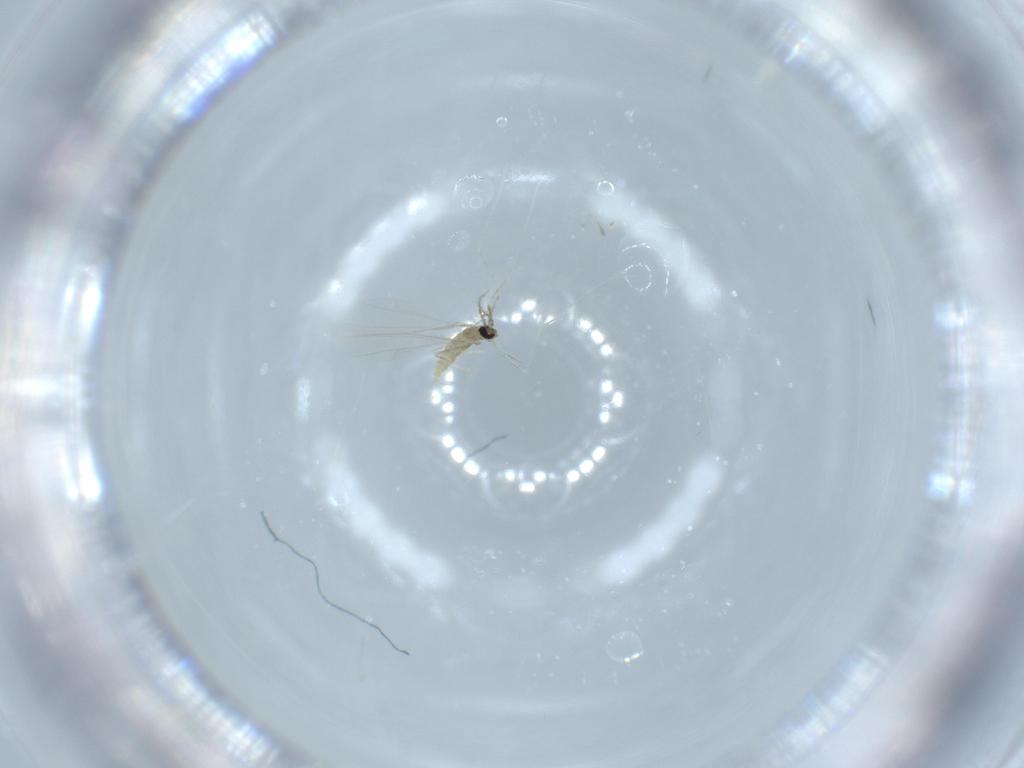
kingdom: Animalia
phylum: Arthropoda
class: Insecta
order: Diptera
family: Cecidomyiidae
